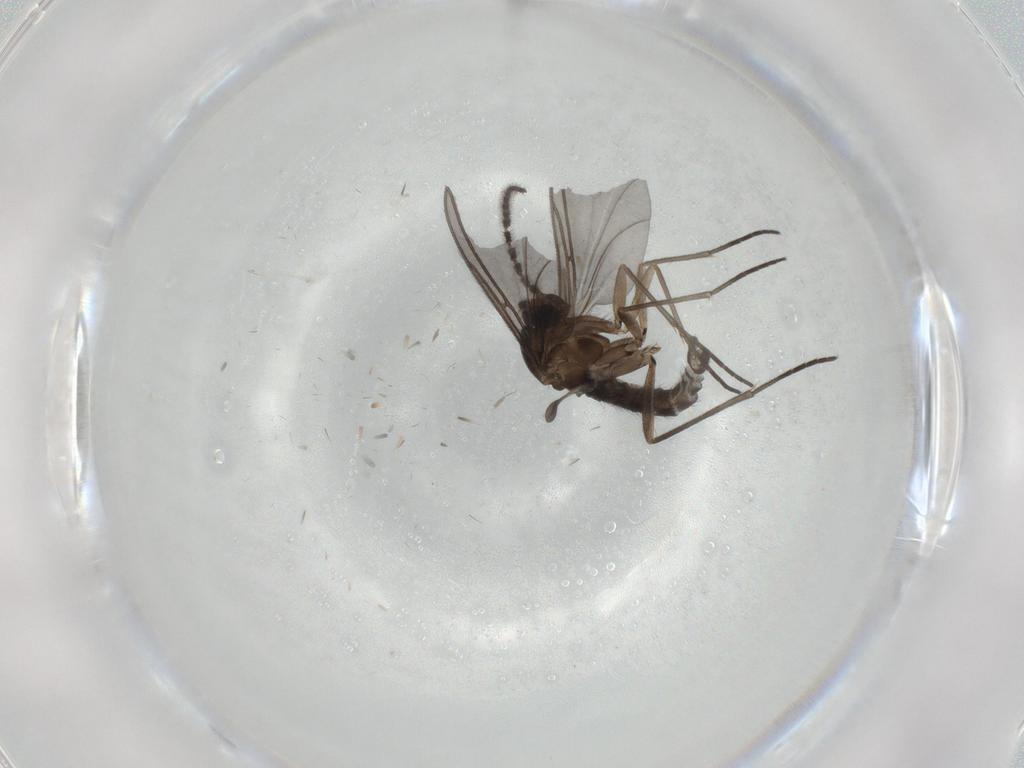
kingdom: Animalia
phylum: Arthropoda
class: Insecta
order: Diptera
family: Sciaridae
